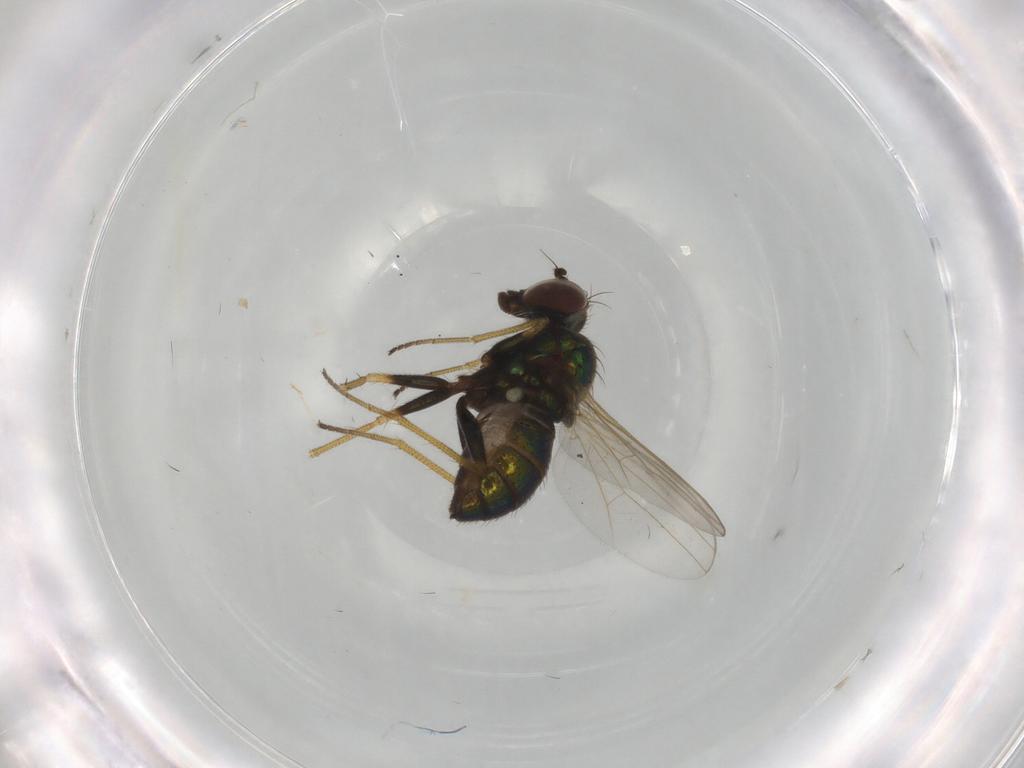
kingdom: Animalia
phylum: Arthropoda
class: Insecta
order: Diptera
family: Dolichopodidae
